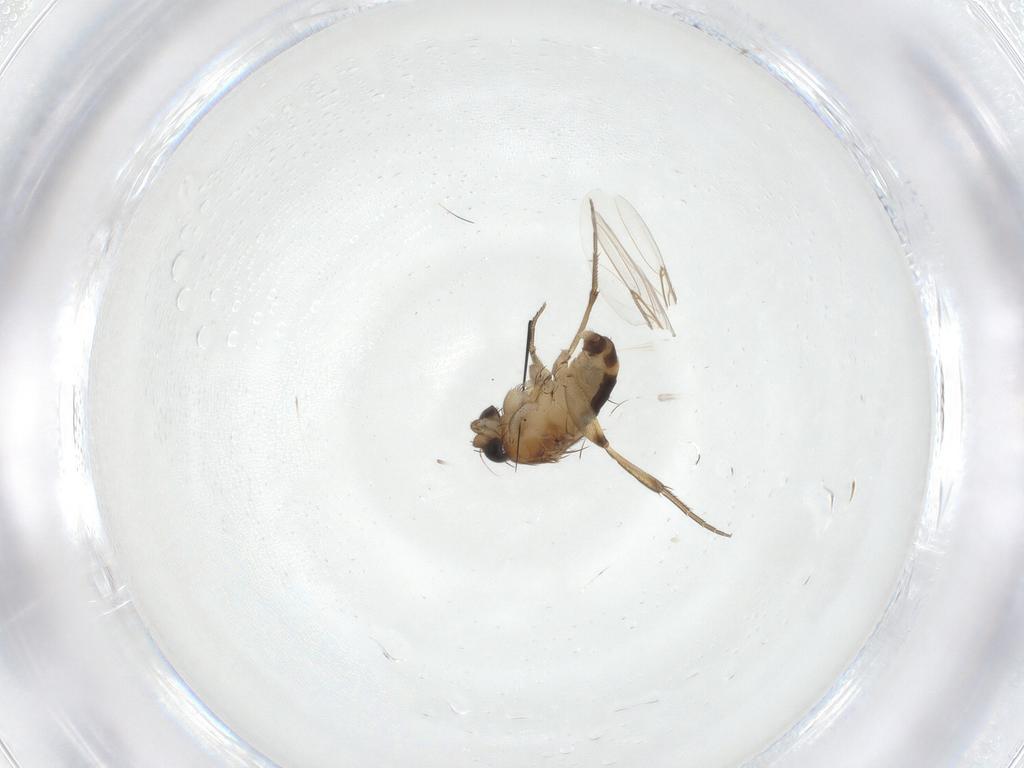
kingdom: Animalia
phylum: Arthropoda
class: Insecta
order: Diptera
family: Phoridae
